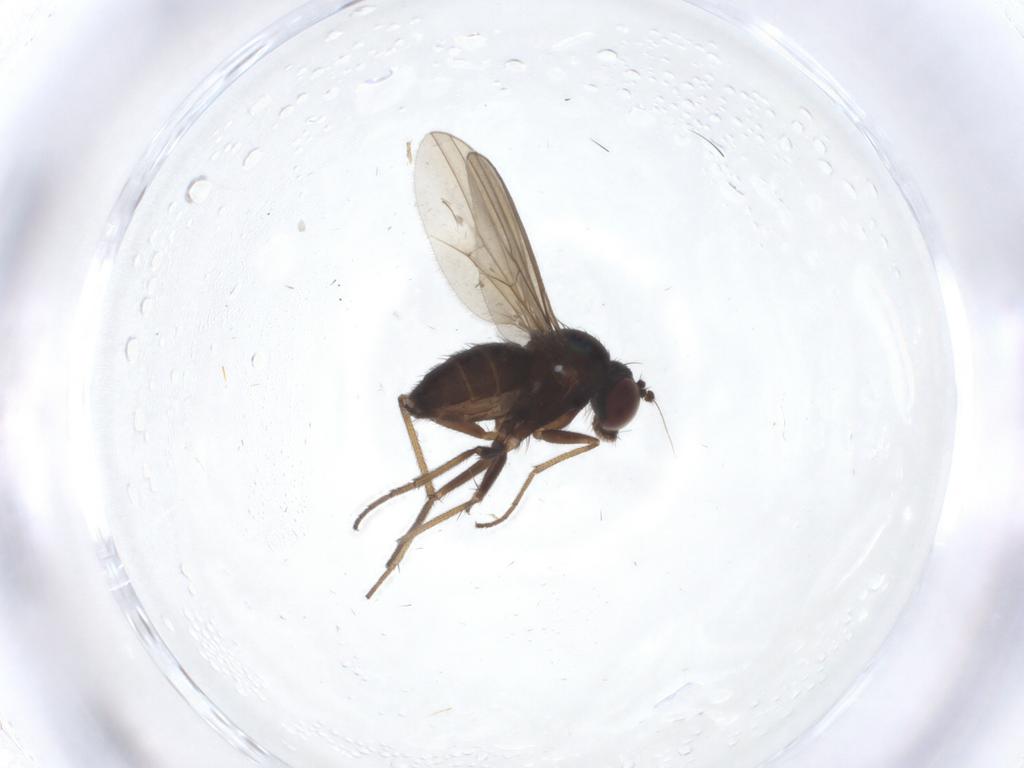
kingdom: Animalia
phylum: Arthropoda
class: Insecta
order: Diptera
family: Dolichopodidae
